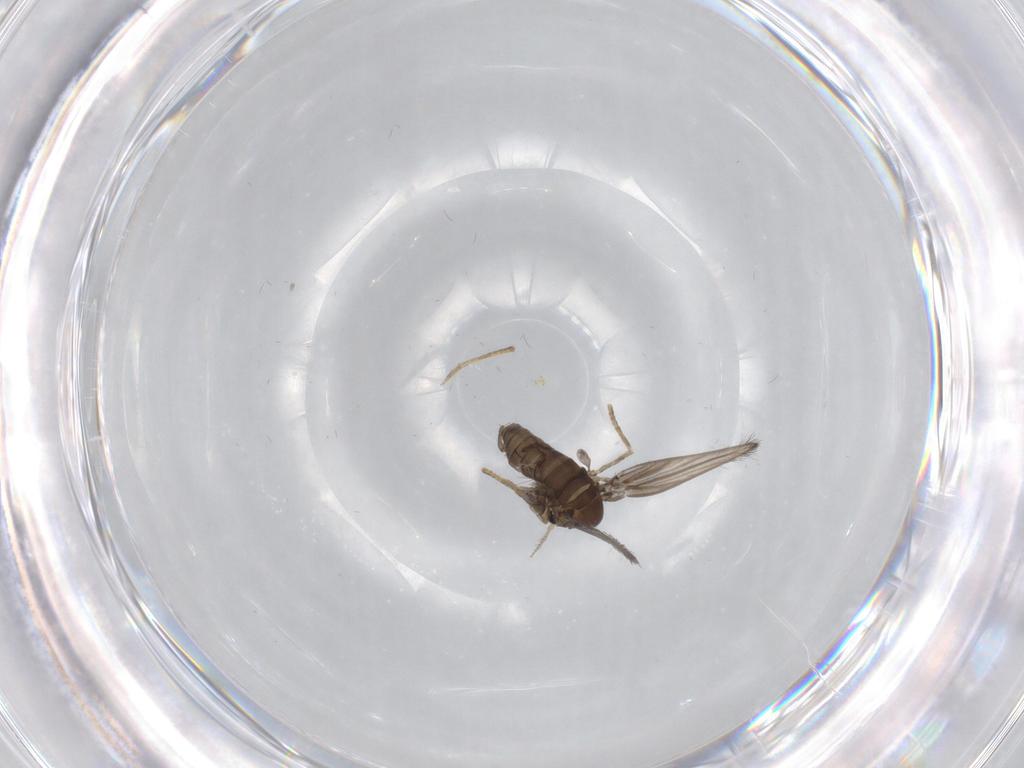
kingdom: Animalia
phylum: Arthropoda
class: Insecta
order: Diptera
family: Psychodidae
